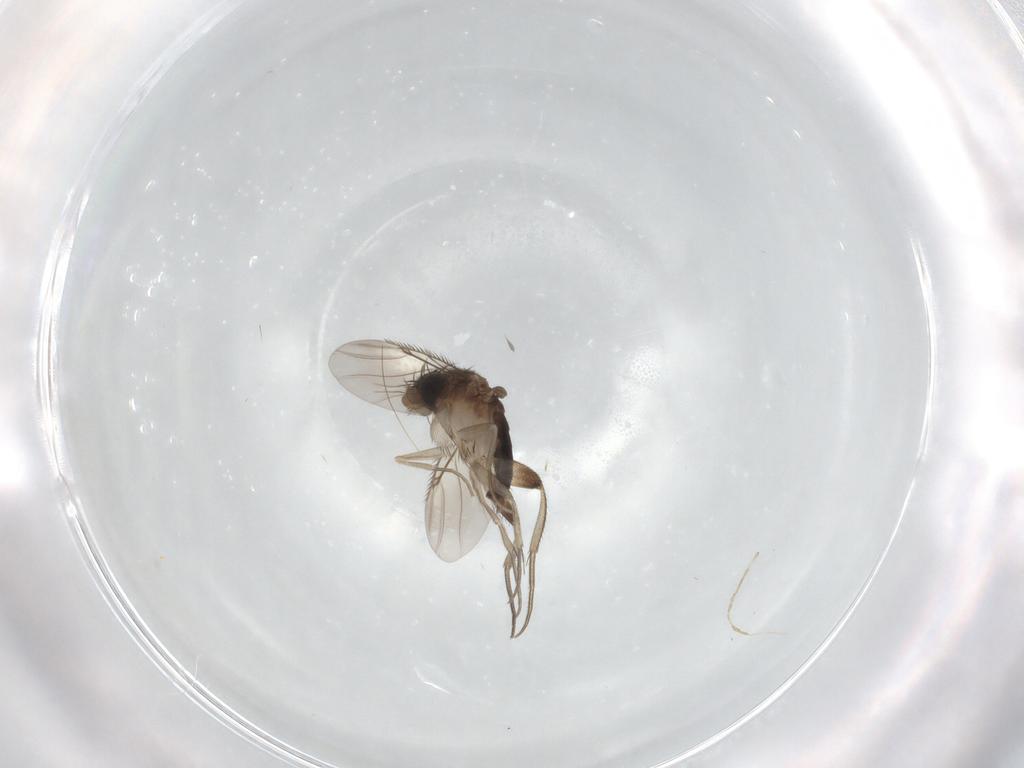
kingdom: Animalia
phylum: Arthropoda
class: Insecta
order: Diptera
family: Phoridae
